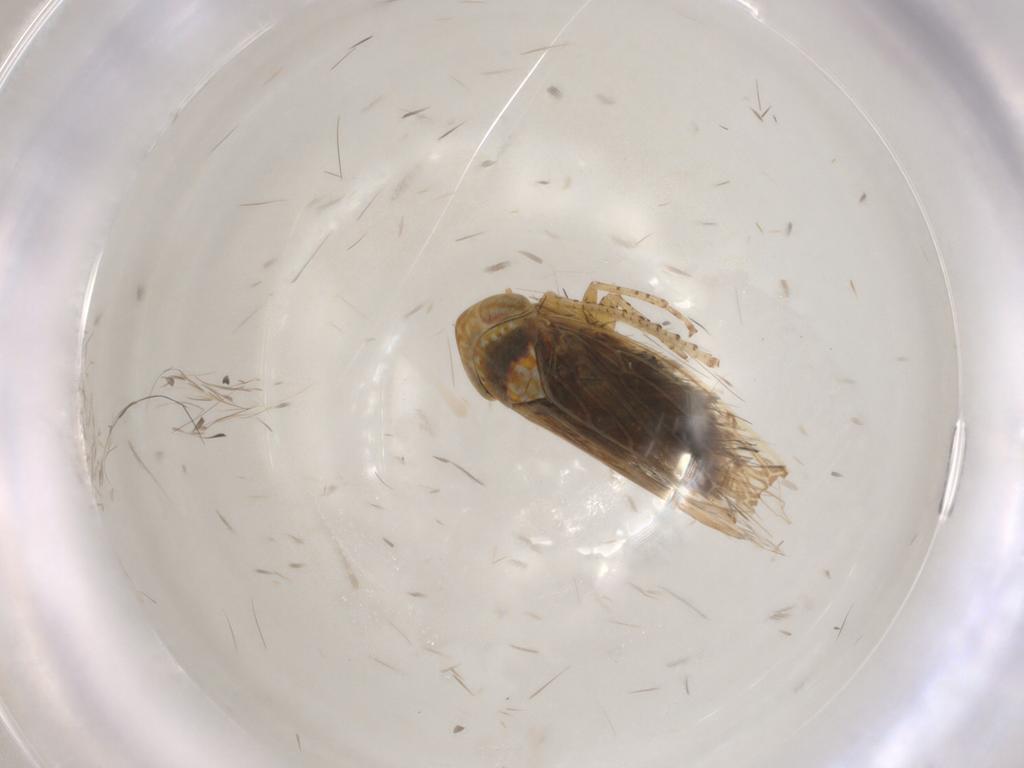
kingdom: Animalia
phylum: Arthropoda
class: Insecta
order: Hemiptera
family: Cicadellidae
